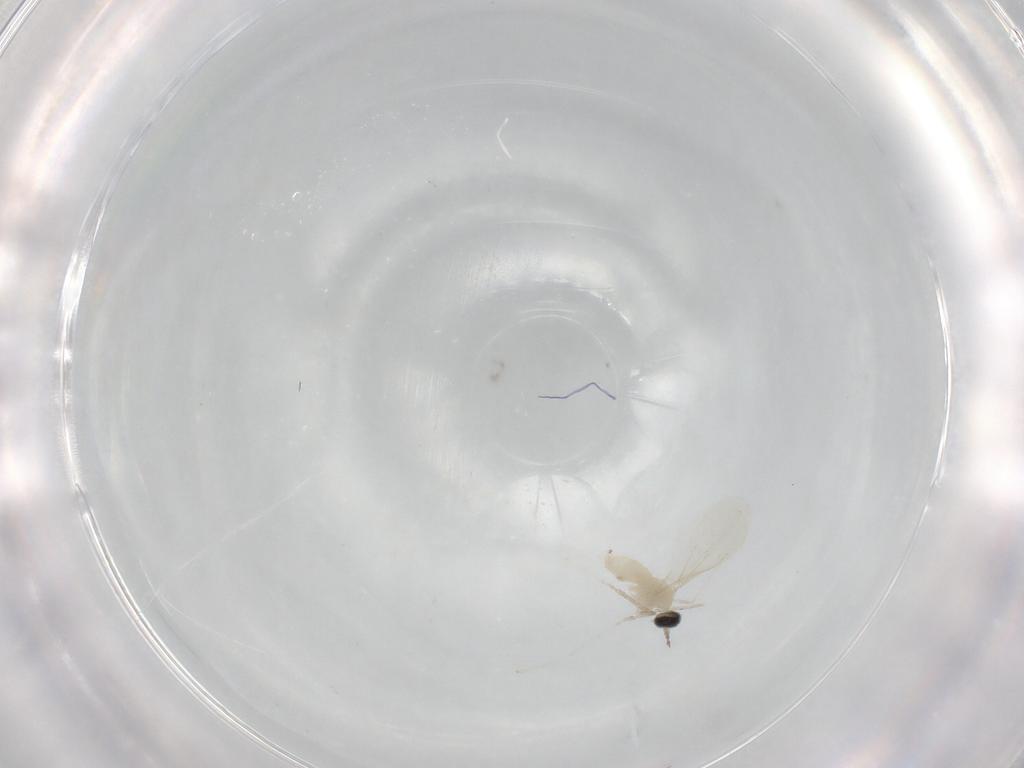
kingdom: Animalia
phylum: Arthropoda
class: Insecta
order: Diptera
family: Cecidomyiidae
